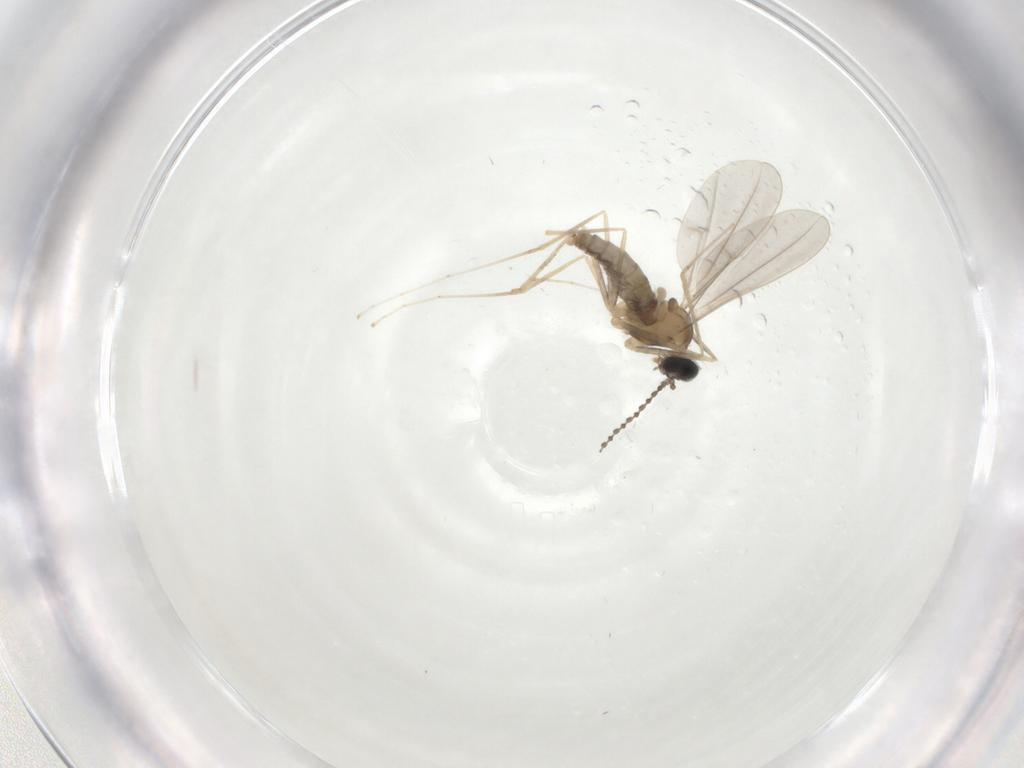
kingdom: Animalia
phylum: Arthropoda
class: Insecta
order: Diptera
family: Cecidomyiidae
